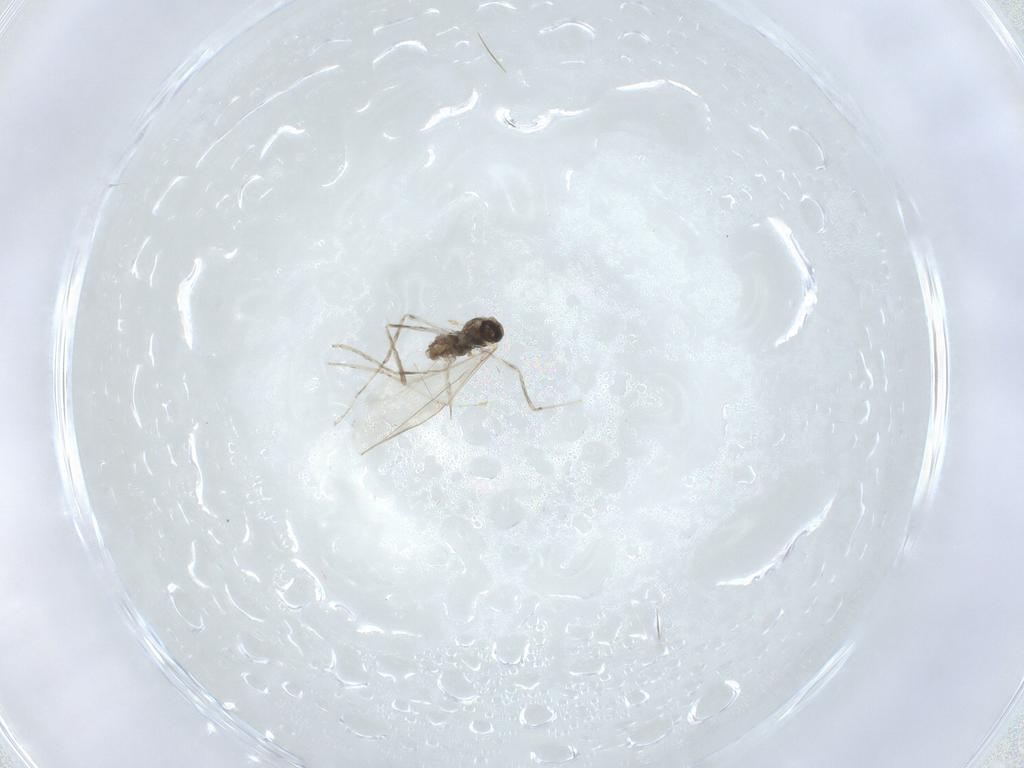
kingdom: Animalia
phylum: Arthropoda
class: Insecta
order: Diptera
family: Cecidomyiidae
